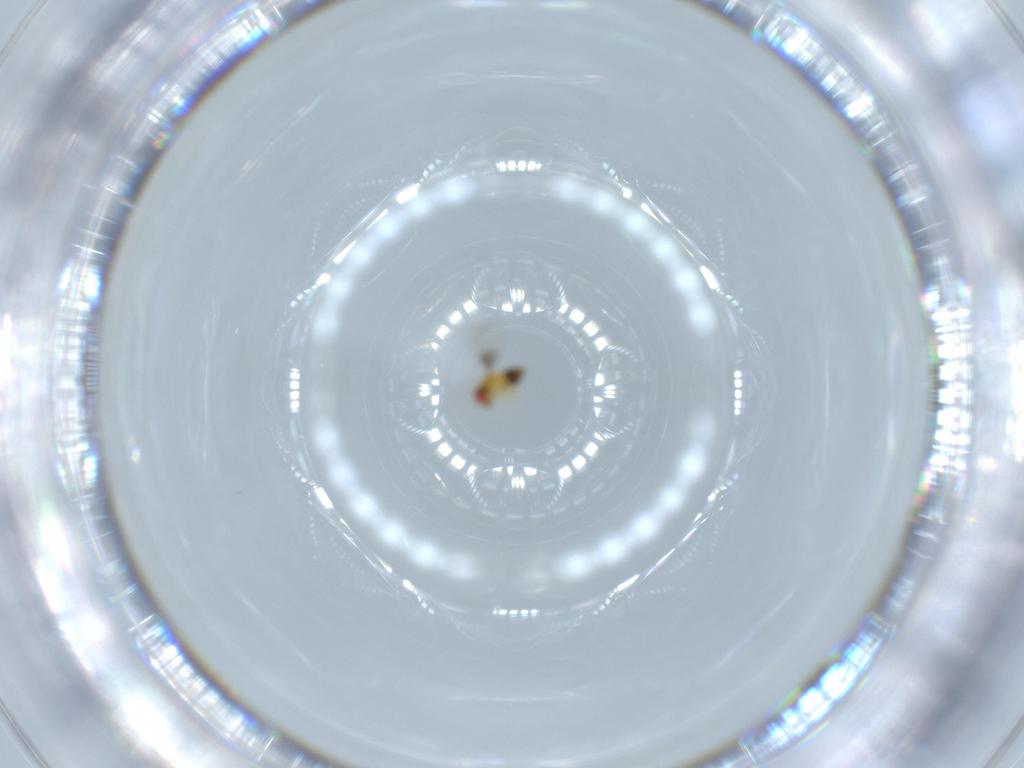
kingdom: Animalia
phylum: Arthropoda
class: Insecta
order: Hymenoptera
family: Trichogrammatidae
